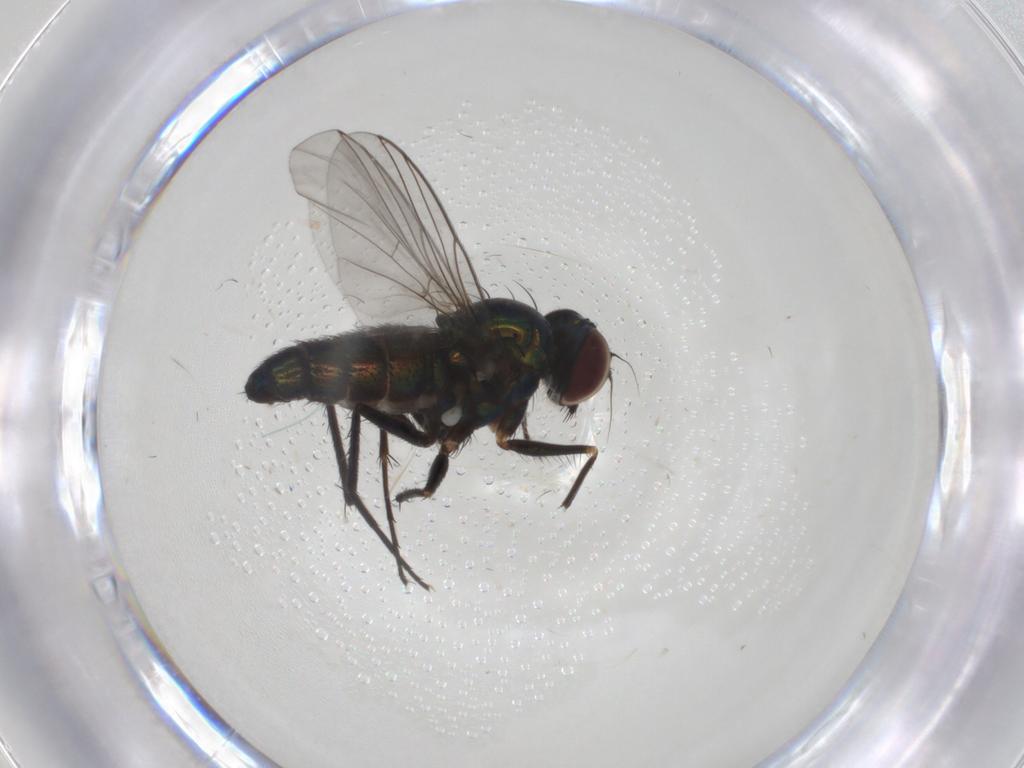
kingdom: Animalia
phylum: Arthropoda
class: Insecta
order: Diptera
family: Dolichopodidae
